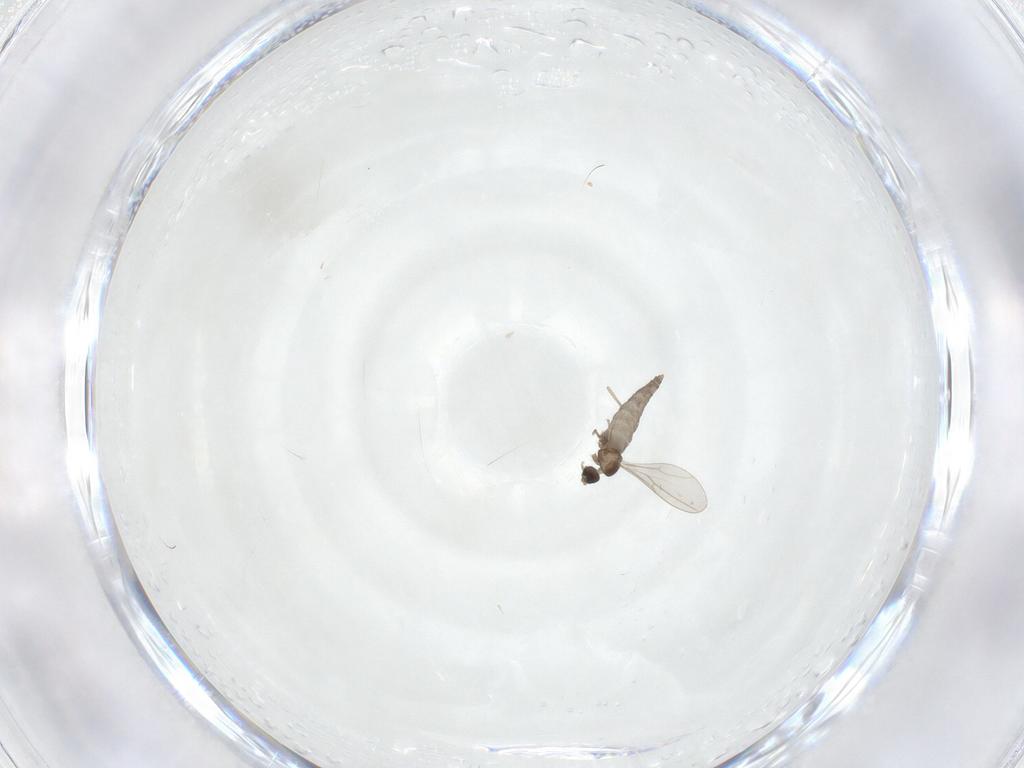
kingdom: Animalia
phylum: Arthropoda
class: Insecta
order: Diptera
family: Cecidomyiidae
